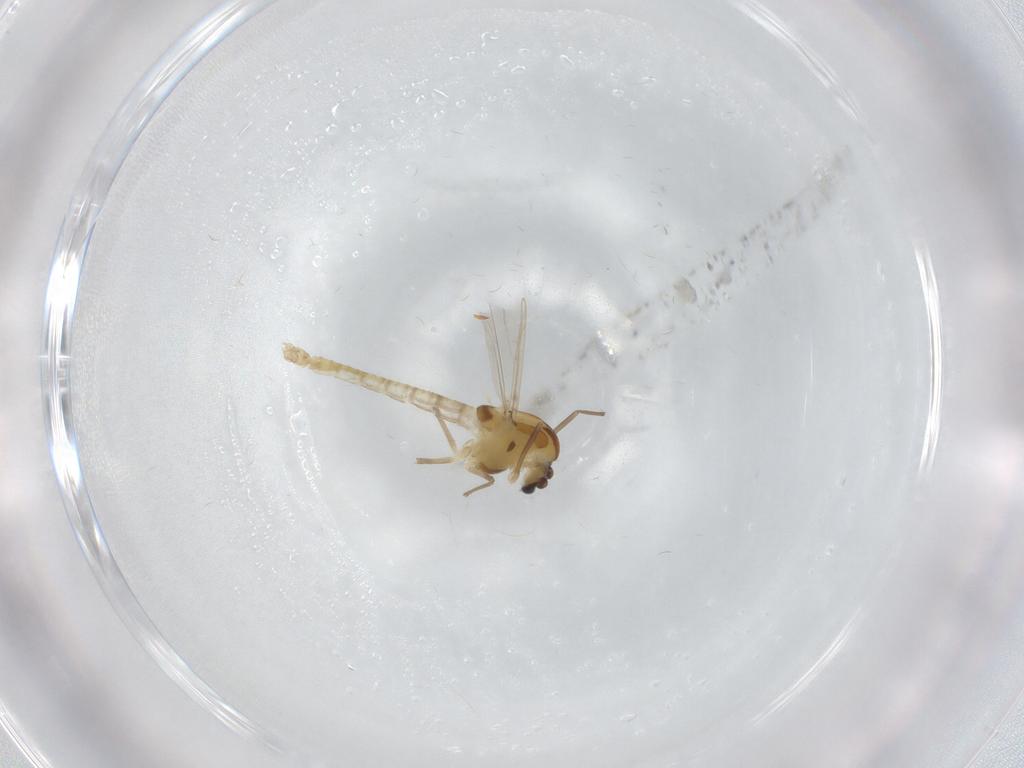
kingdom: Animalia
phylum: Arthropoda
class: Insecta
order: Diptera
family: Chironomidae
